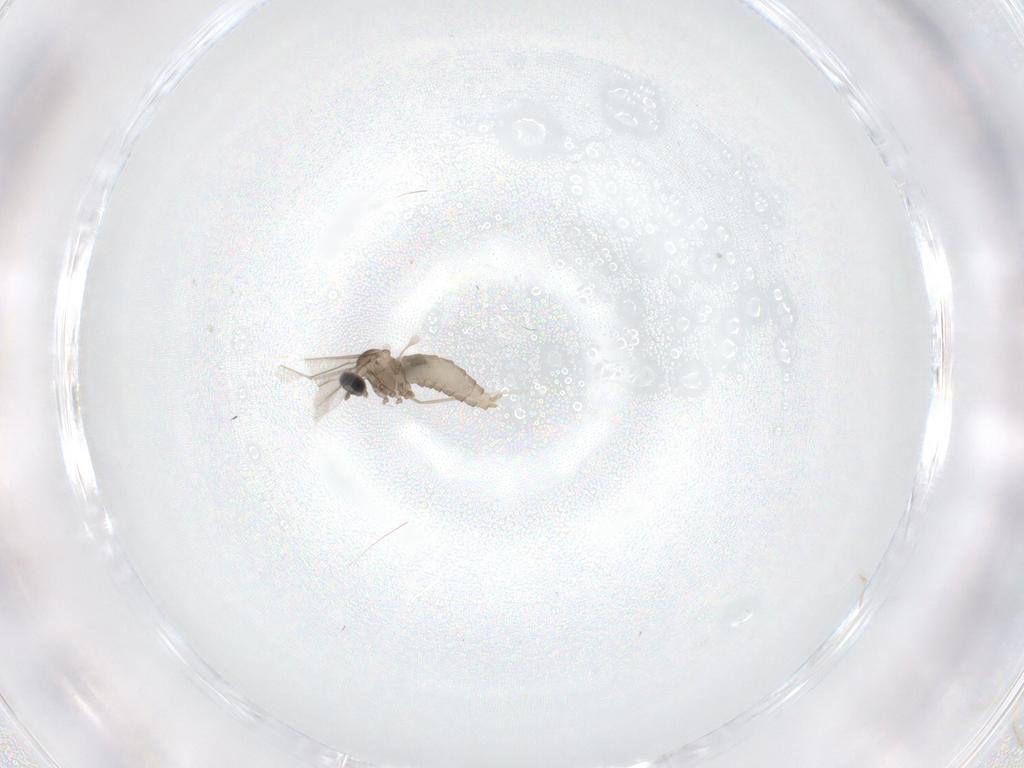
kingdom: Animalia
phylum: Arthropoda
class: Insecta
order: Diptera
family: Cecidomyiidae
